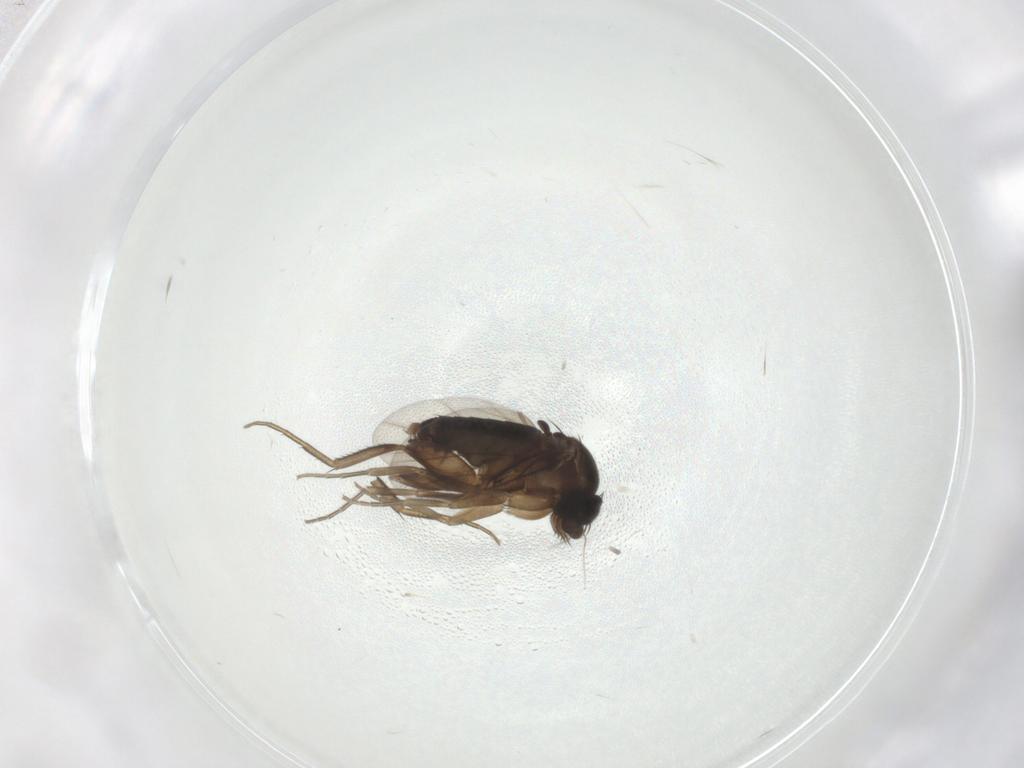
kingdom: Animalia
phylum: Arthropoda
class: Insecta
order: Diptera
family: Phoridae
